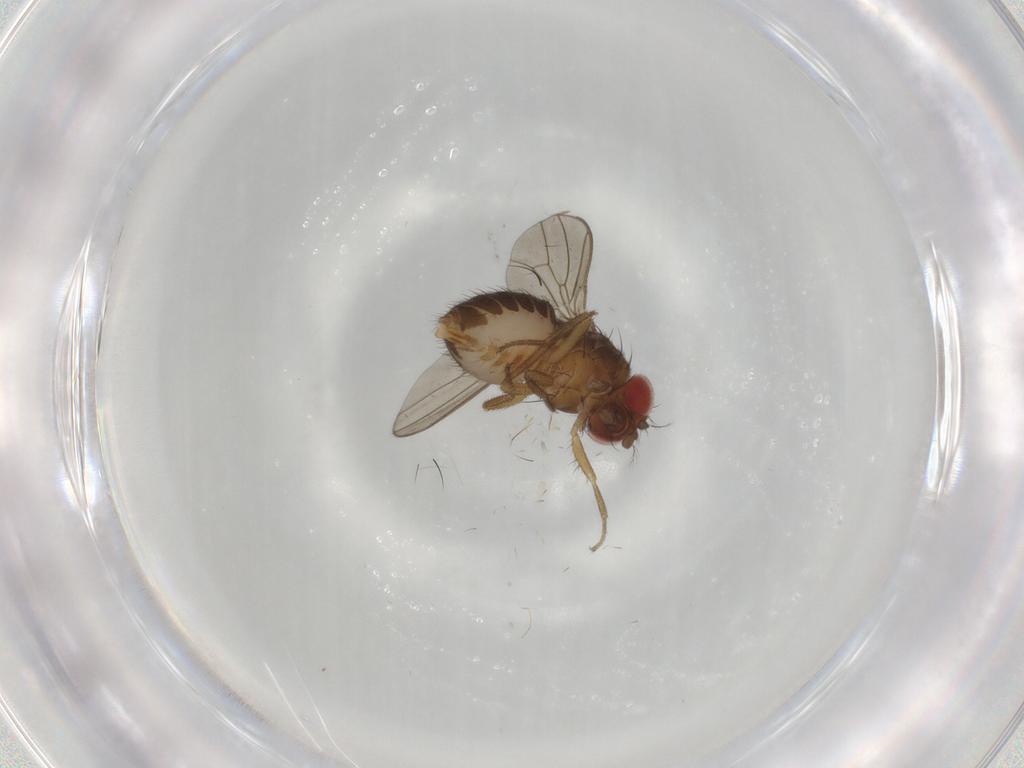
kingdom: Animalia
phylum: Arthropoda
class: Insecta
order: Diptera
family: Drosophilidae
